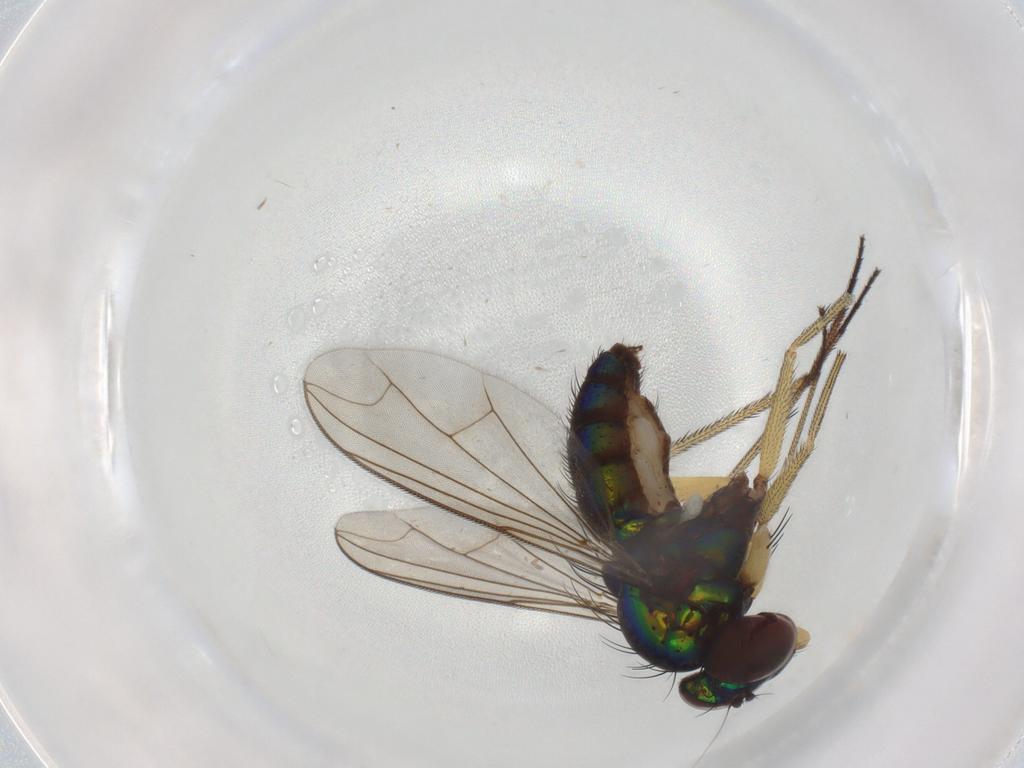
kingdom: Animalia
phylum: Arthropoda
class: Insecta
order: Diptera
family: Dolichopodidae
